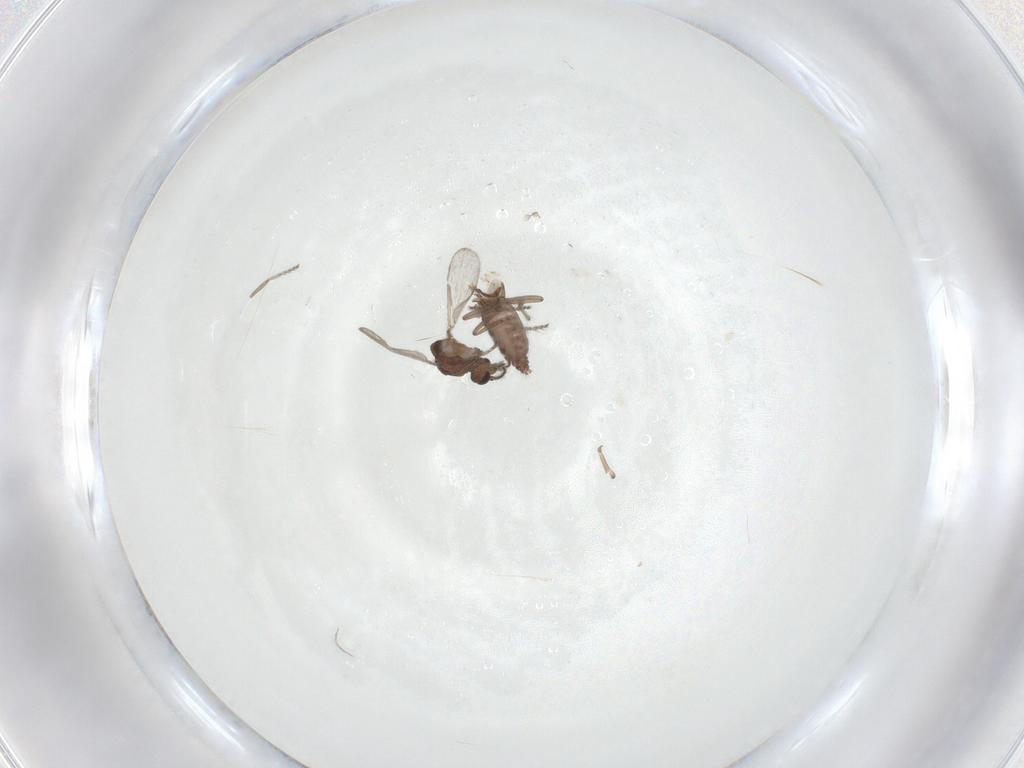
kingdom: Animalia
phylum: Arthropoda
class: Insecta
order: Diptera
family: Ceratopogonidae
